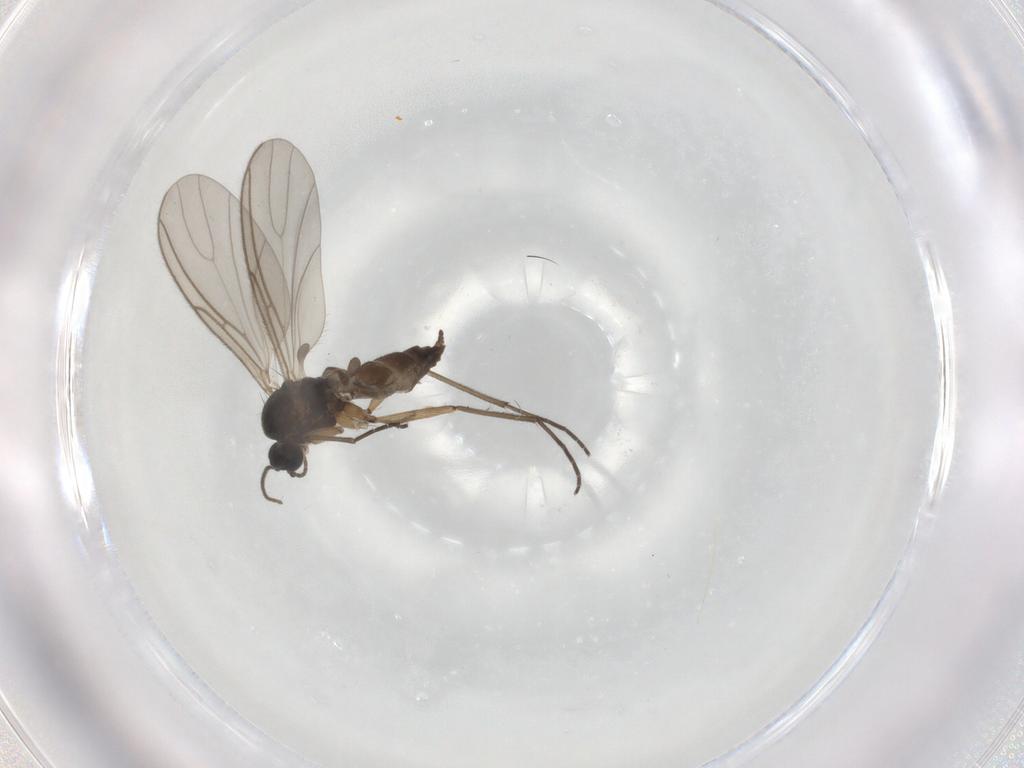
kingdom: Animalia
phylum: Arthropoda
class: Insecta
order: Diptera
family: Sciaridae
